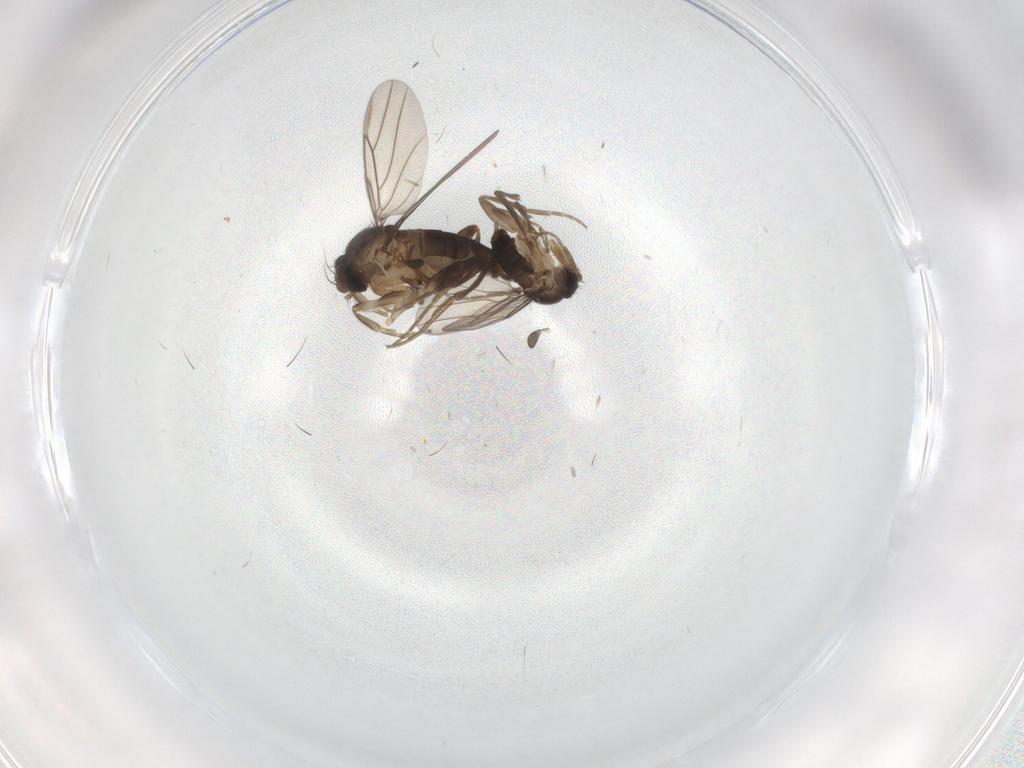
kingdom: Animalia
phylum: Arthropoda
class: Insecta
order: Diptera
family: Phoridae
